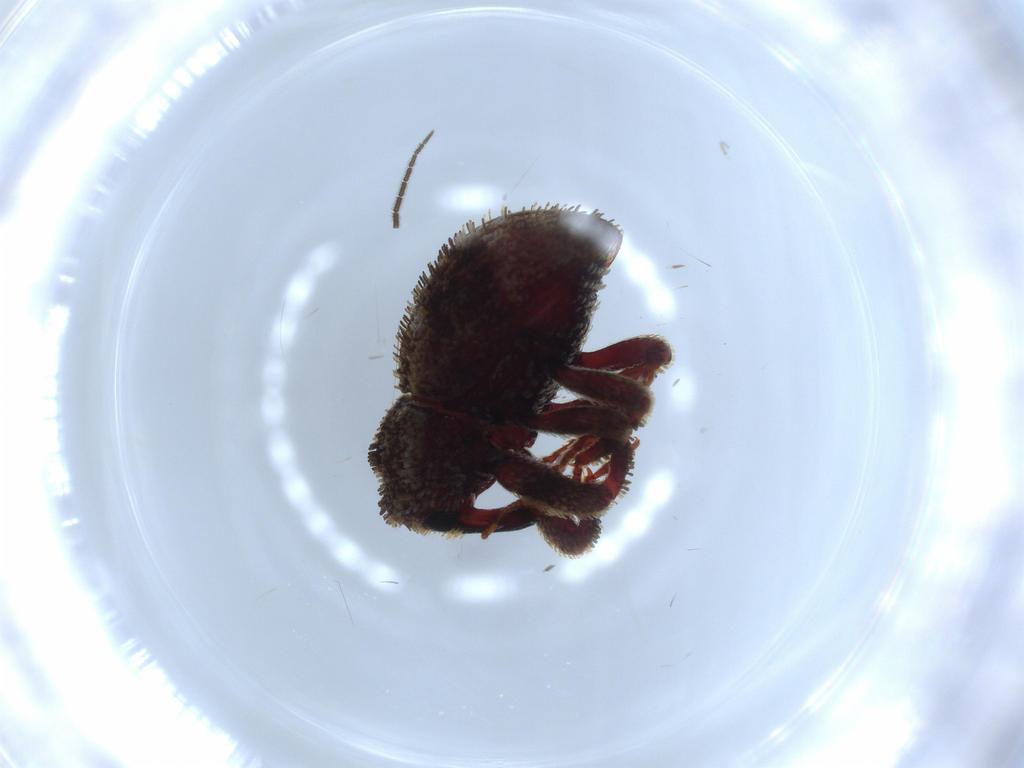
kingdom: Animalia
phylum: Arthropoda
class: Insecta
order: Coleoptera
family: Curculionidae
